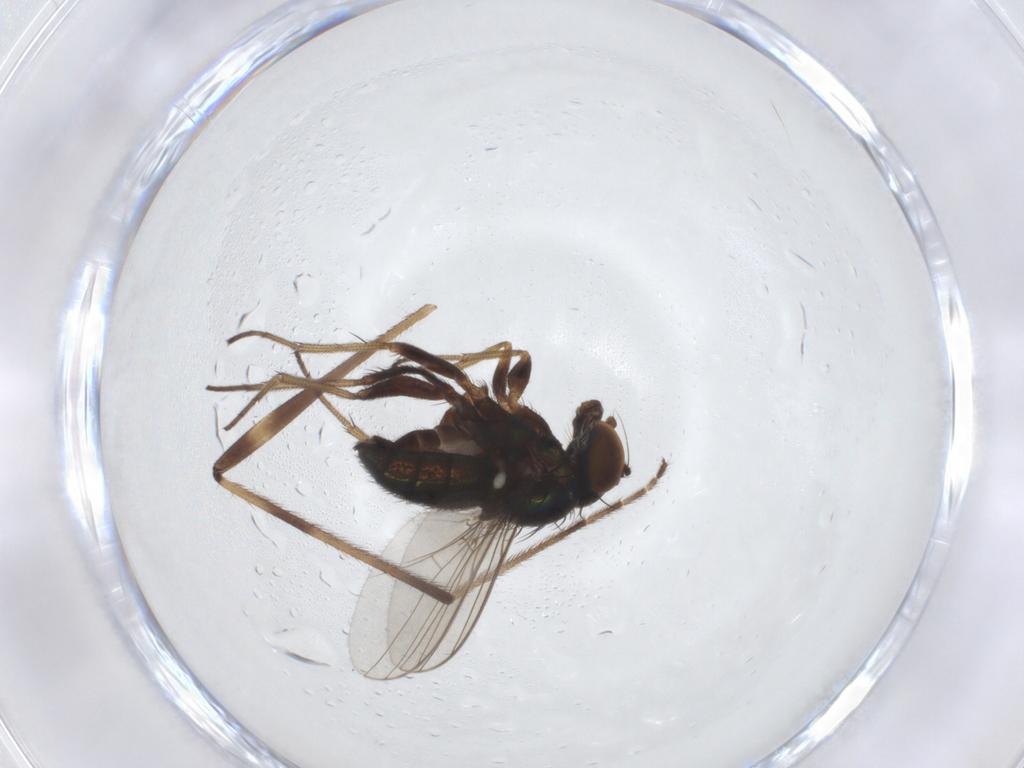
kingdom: Animalia
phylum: Arthropoda
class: Insecta
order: Diptera
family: Limoniidae
